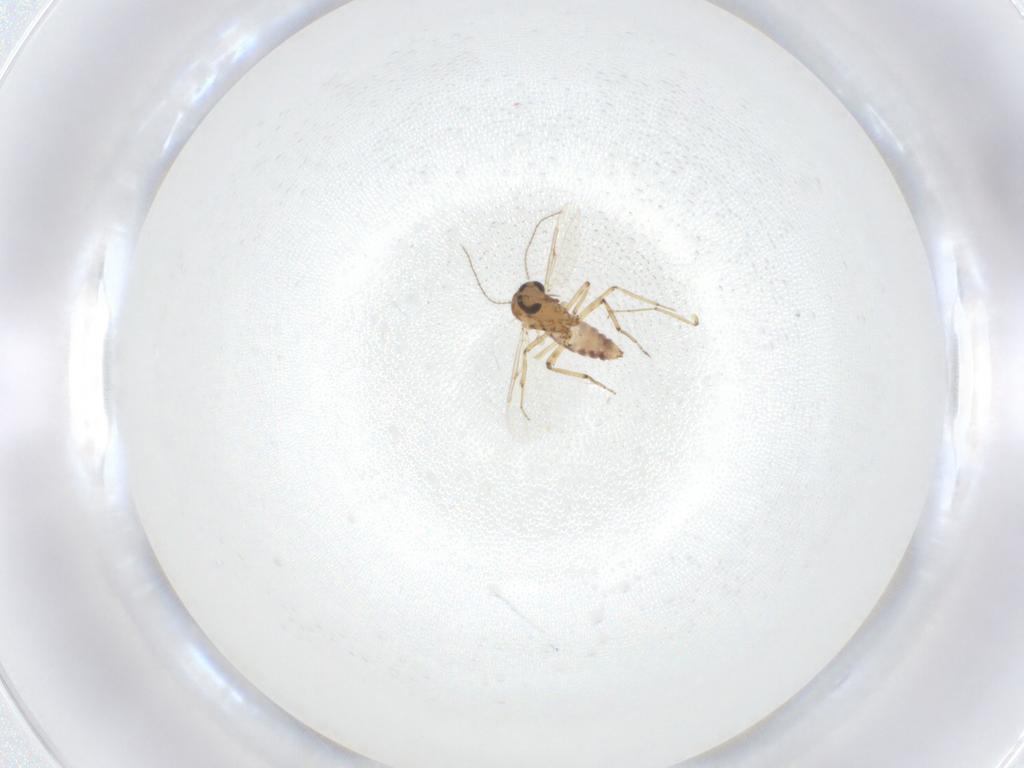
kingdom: Animalia
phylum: Arthropoda
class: Insecta
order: Diptera
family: Ceratopogonidae
